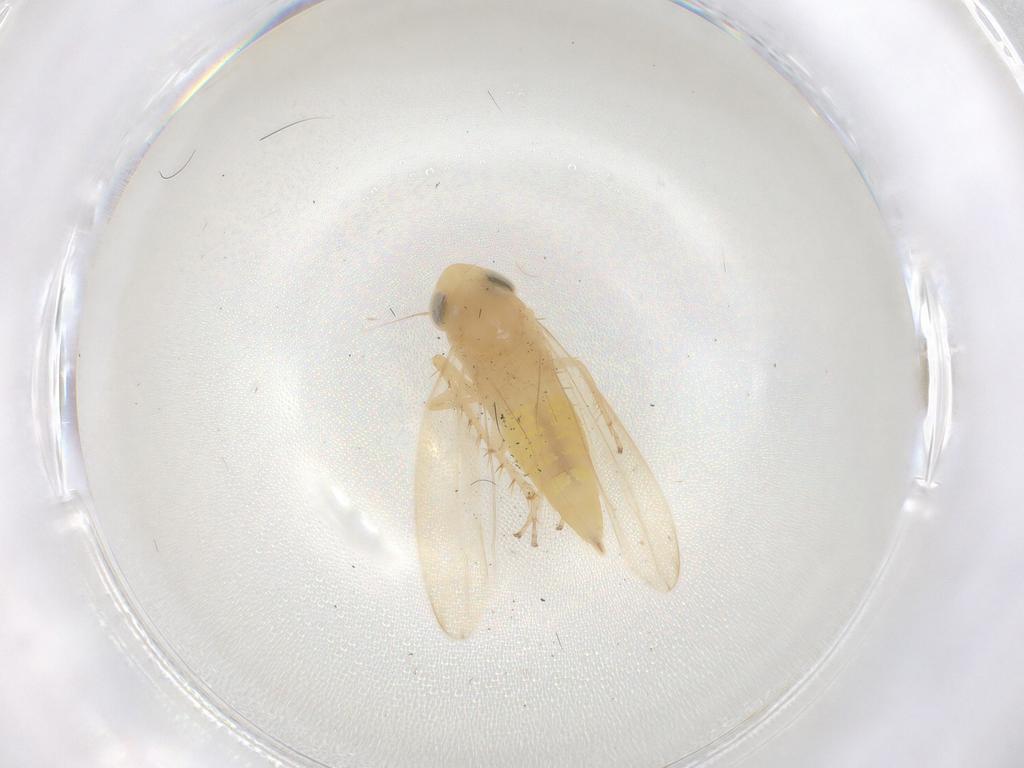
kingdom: Animalia
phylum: Arthropoda
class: Insecta
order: Hemiptera
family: Cicadellidae
